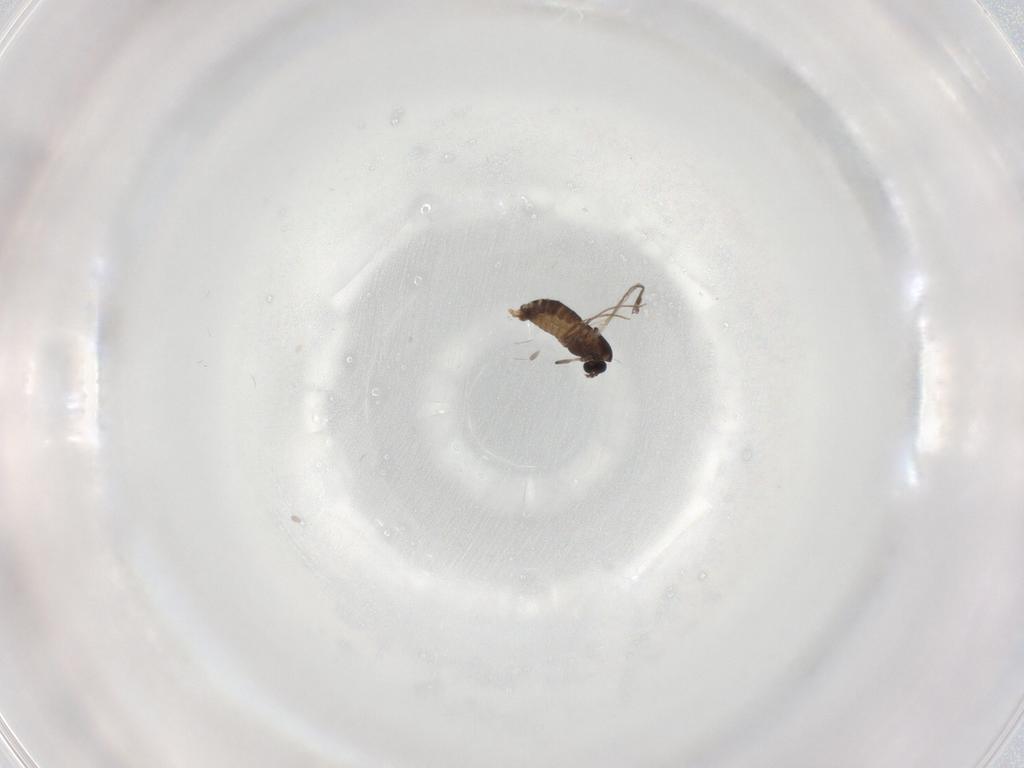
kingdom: Animalia
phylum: Arthropoda
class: Insecta
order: Diptera
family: Chironomidae
